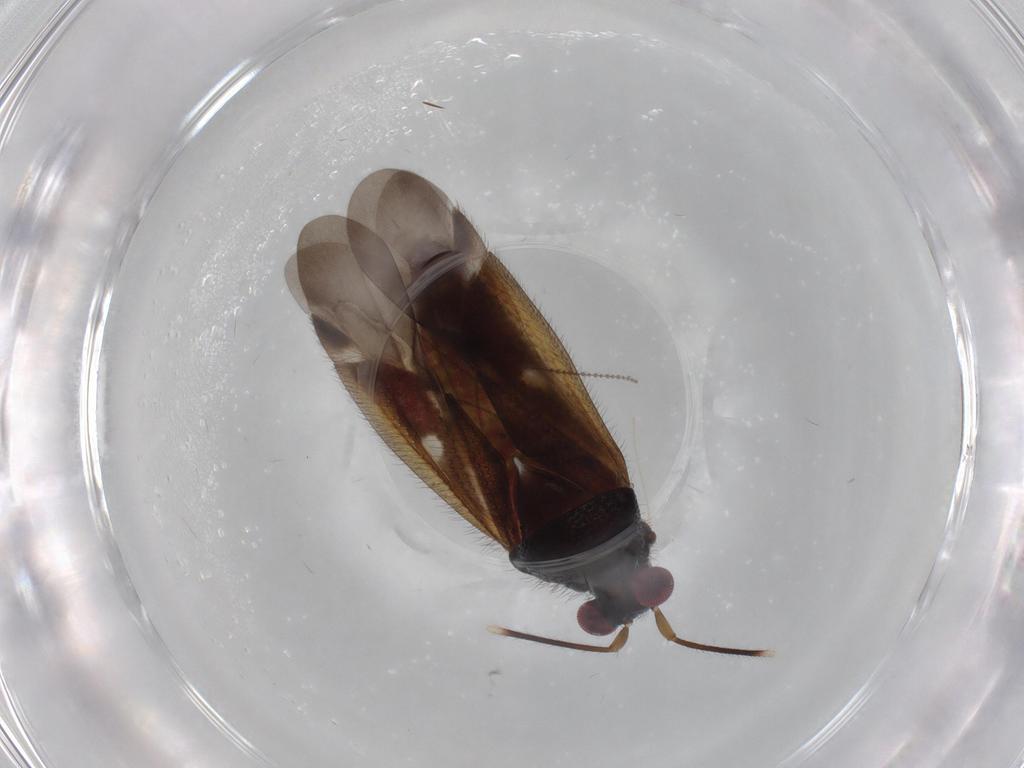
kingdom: Animalia
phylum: Arthropoda
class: Insecta
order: Hemiptera
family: Miridae
